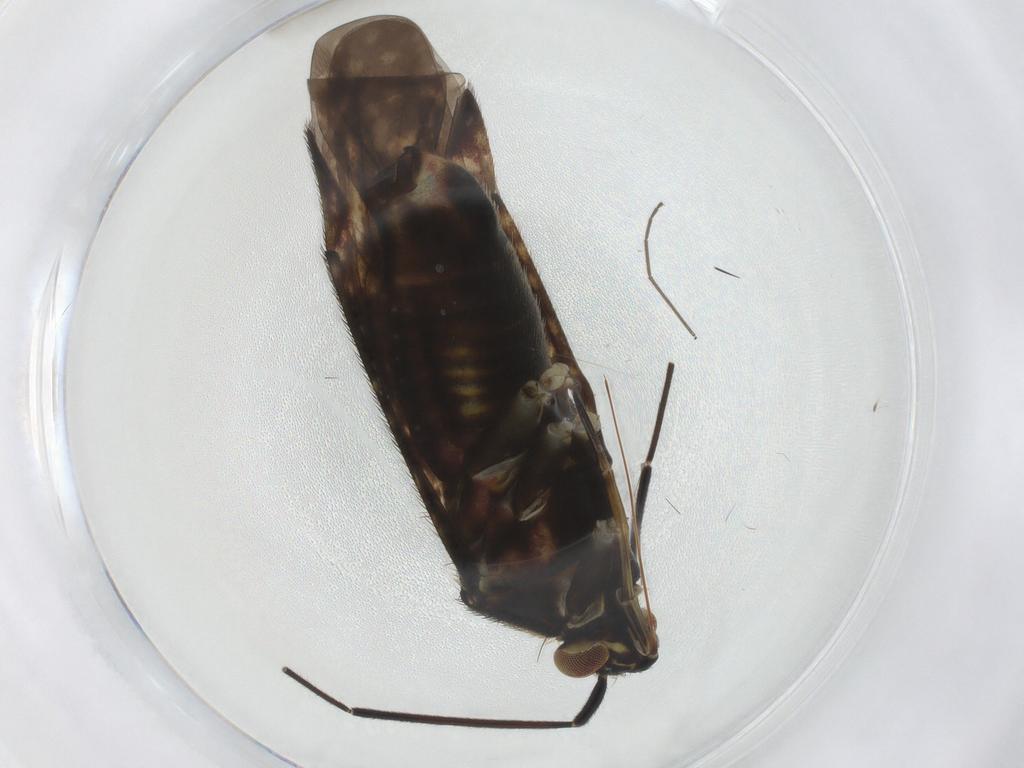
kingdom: Animalia
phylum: Arthropoda
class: Insecta
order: Hemiptera
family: Miridae
